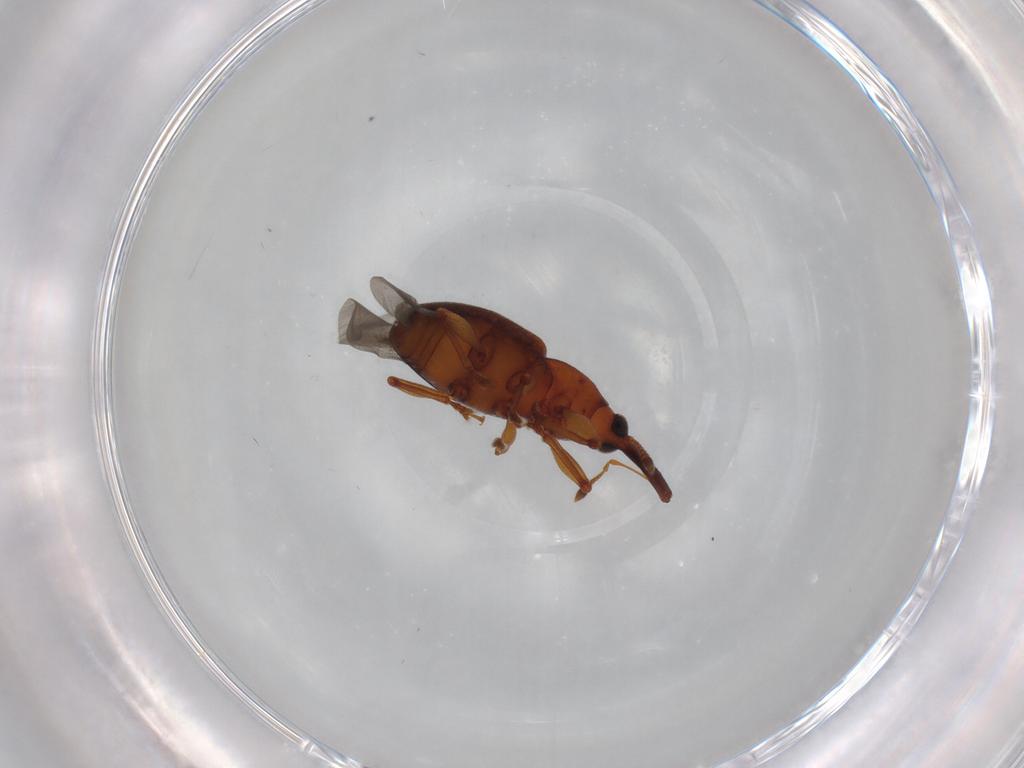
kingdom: Animalia
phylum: Arthropoda
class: Insecta
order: Coleoptera
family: Curculionidae
